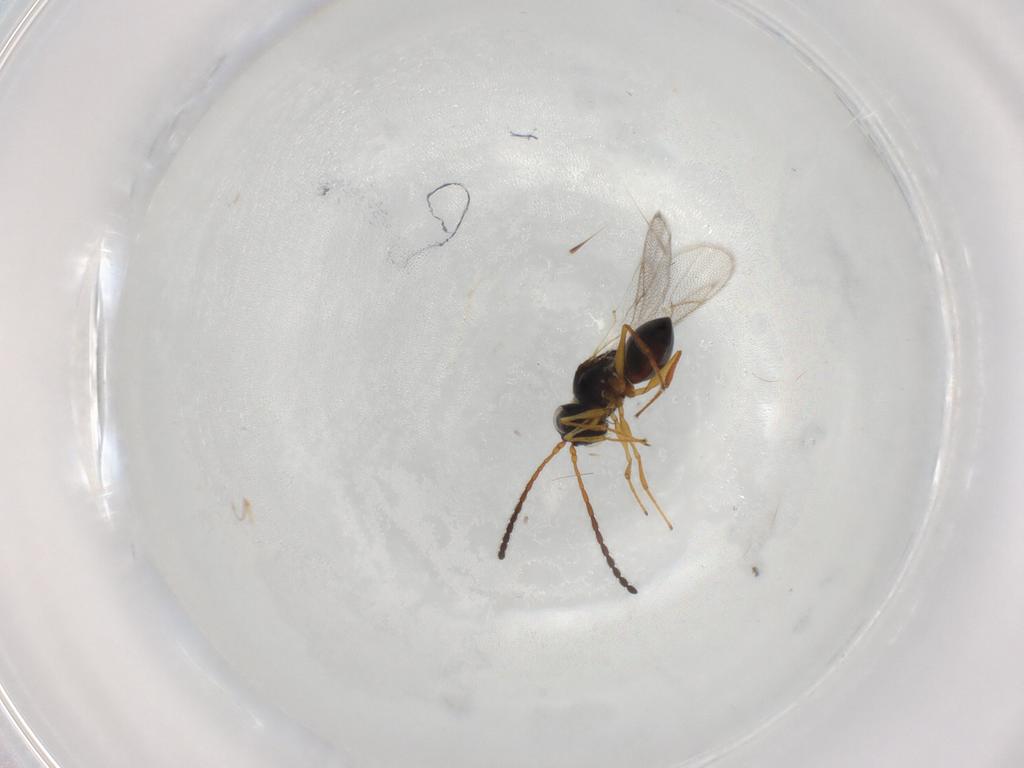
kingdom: Animalia
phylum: Arthropoda
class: Insecta
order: Hymenoptera
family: Figitidae
